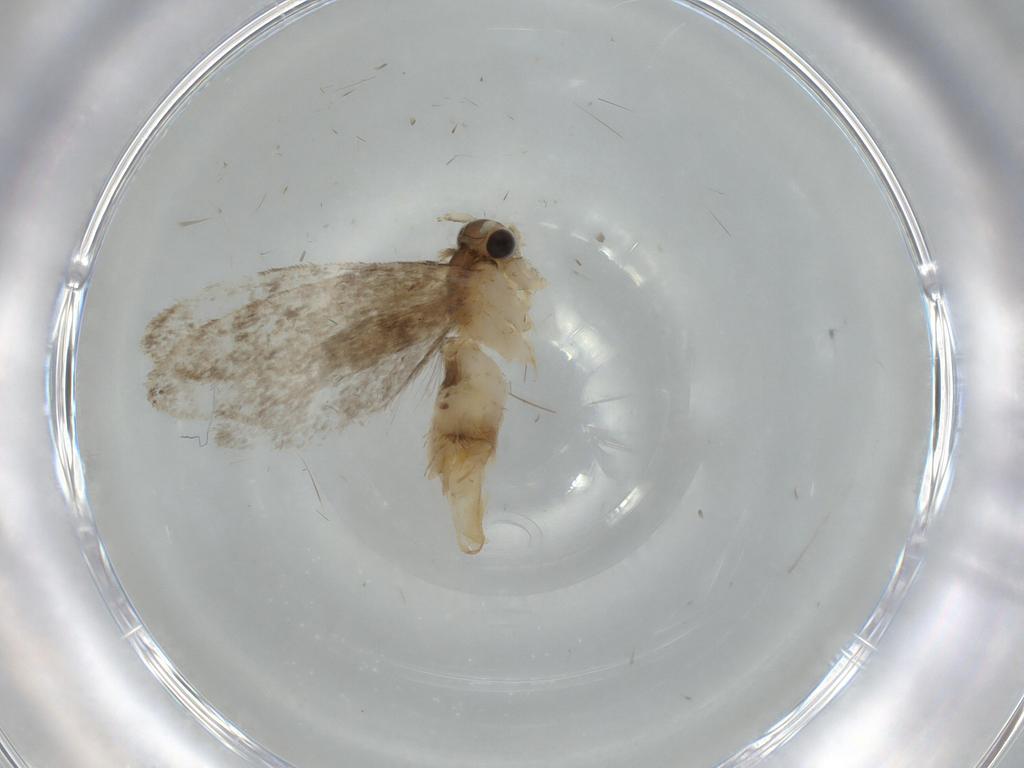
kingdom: Animalia
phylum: Arthropoda
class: Insecta
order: Lepidoptera
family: Tineidae
